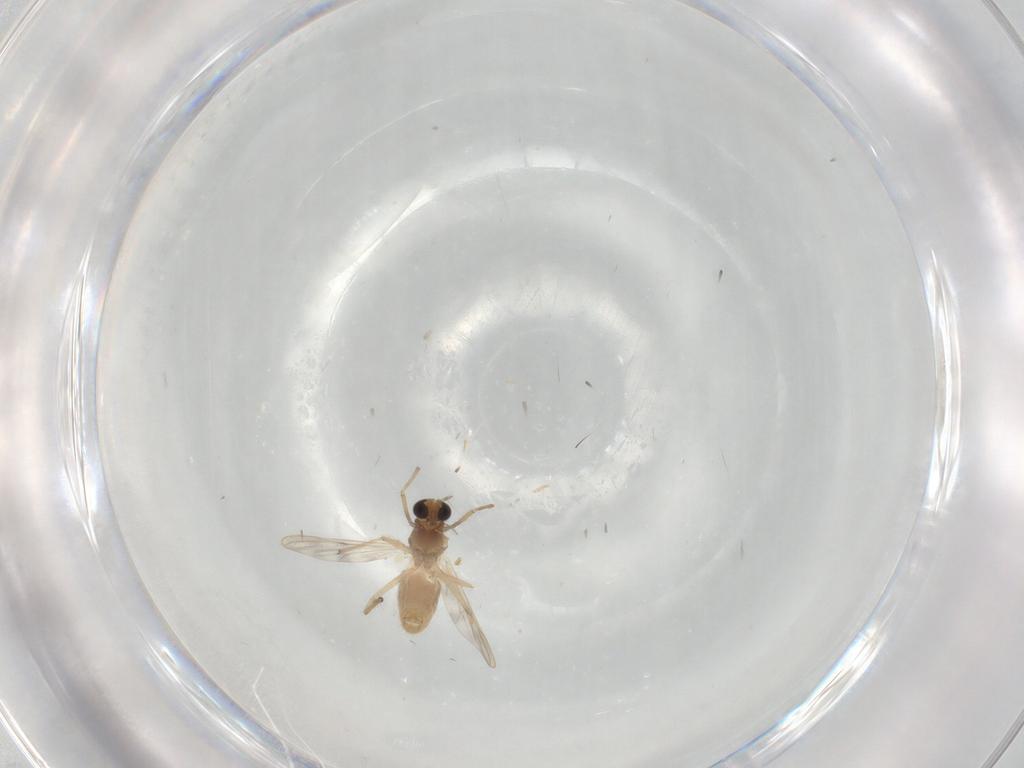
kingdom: Animalia
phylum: Arthropoda
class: Insecta
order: Diptera
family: Chironomidae
